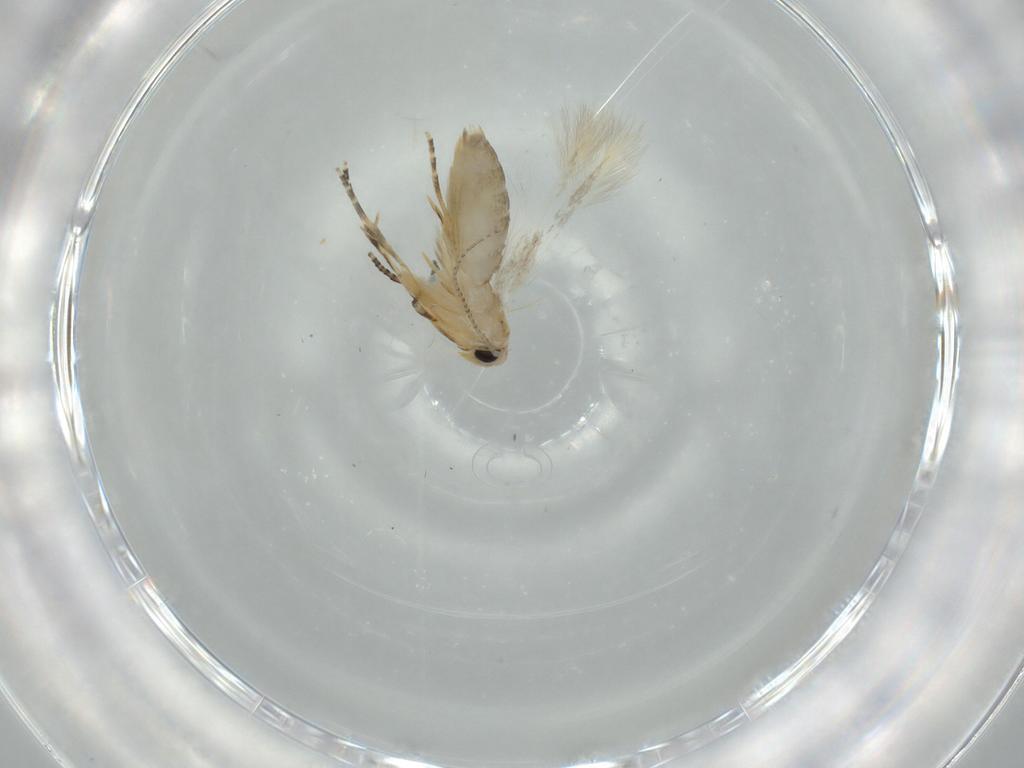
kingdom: Animalia
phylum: Arthropoda
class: Insecta
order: Lepidoptera
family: Bucculatricidae
